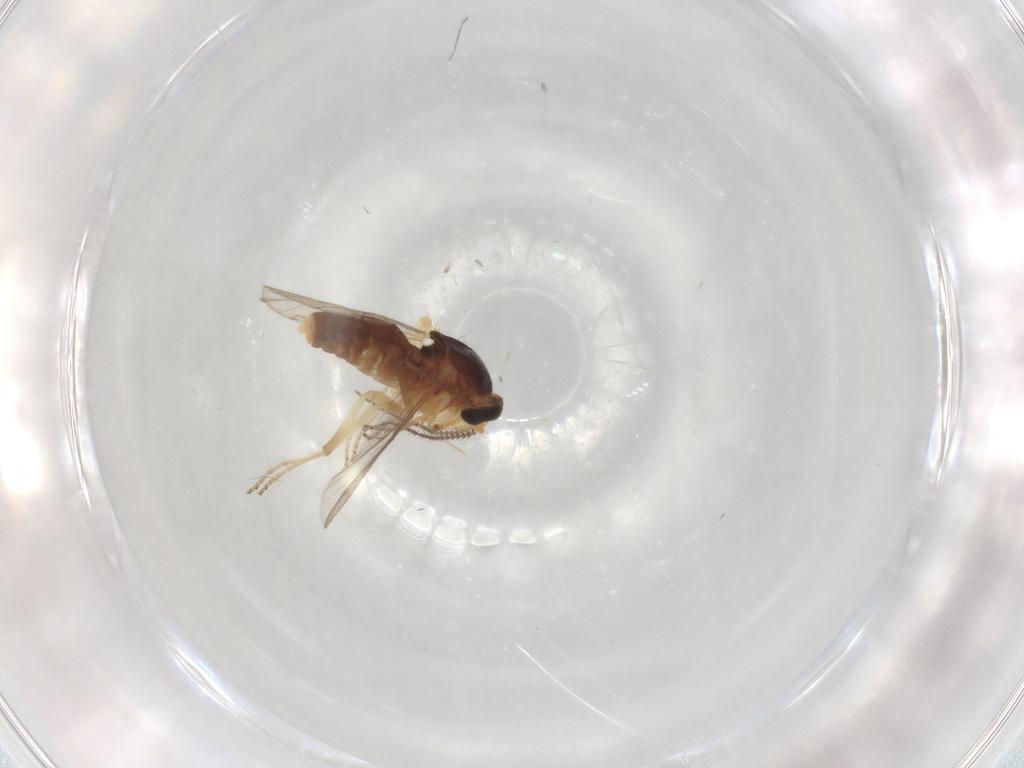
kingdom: Animalia
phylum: Arthropoda
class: Insecta
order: Diptera
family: Ceratopogonidae
